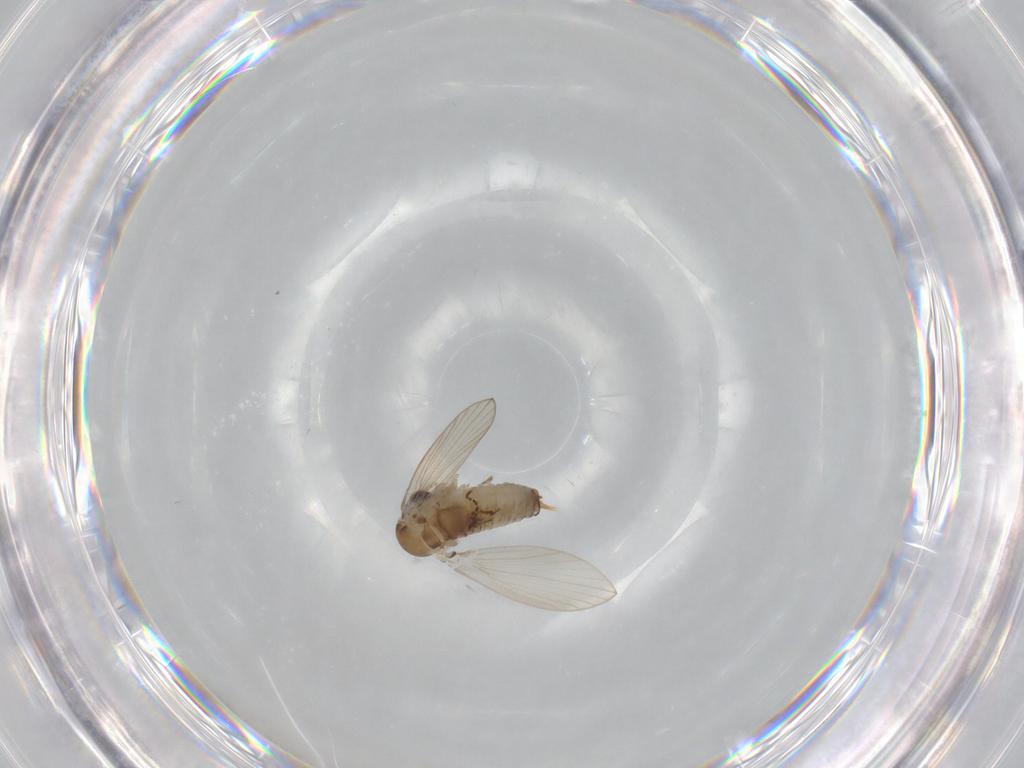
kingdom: Animalia
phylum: Arthropoda
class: Insecta
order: Diptera
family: Psychodidae
